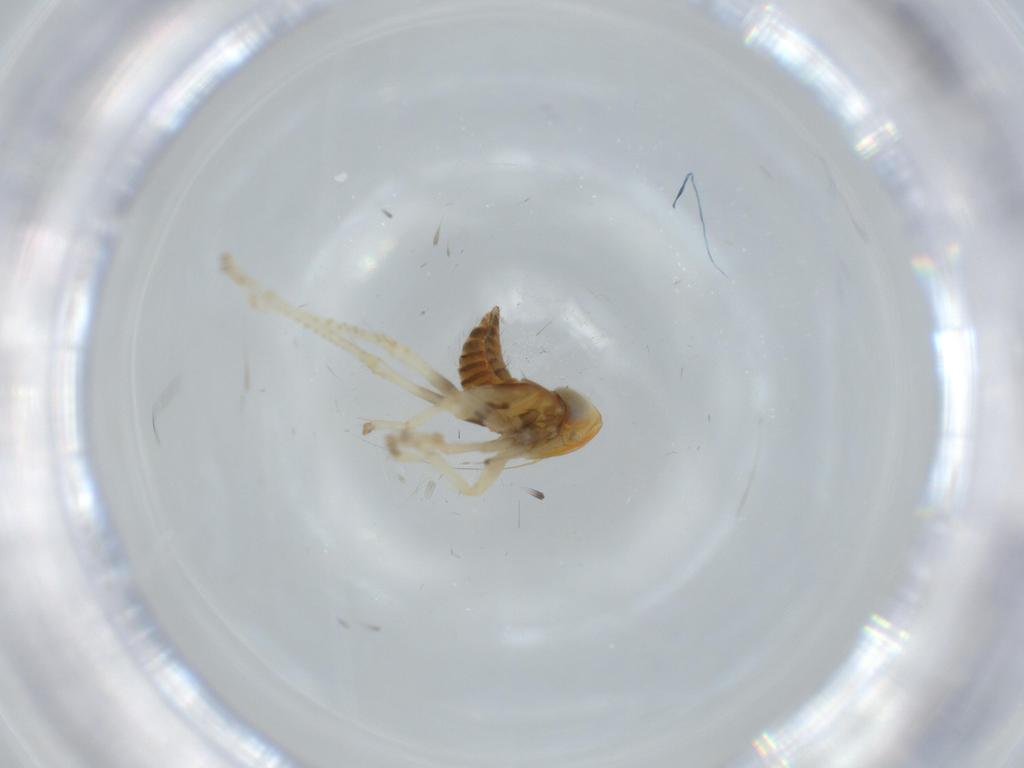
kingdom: Animalia
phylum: Arthropoda
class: Insecta
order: Hemiptera
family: Cicadellidae
